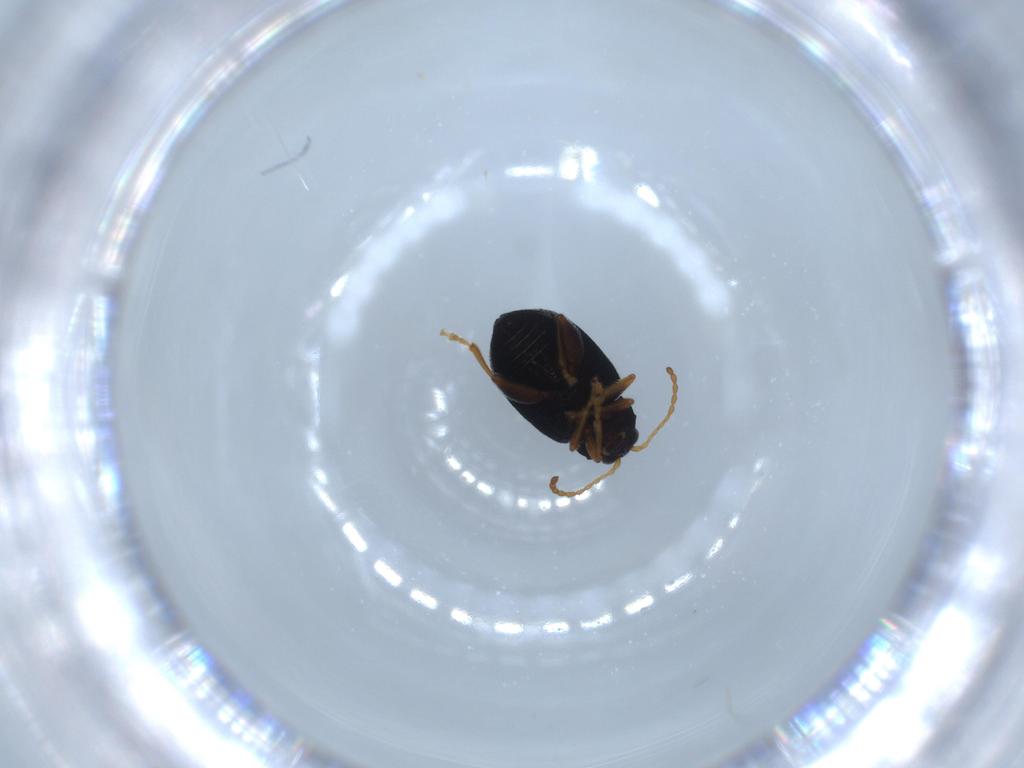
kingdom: Animalia
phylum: Arthropoda
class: Insecta
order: Coleoptera
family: Chrysomelidae
